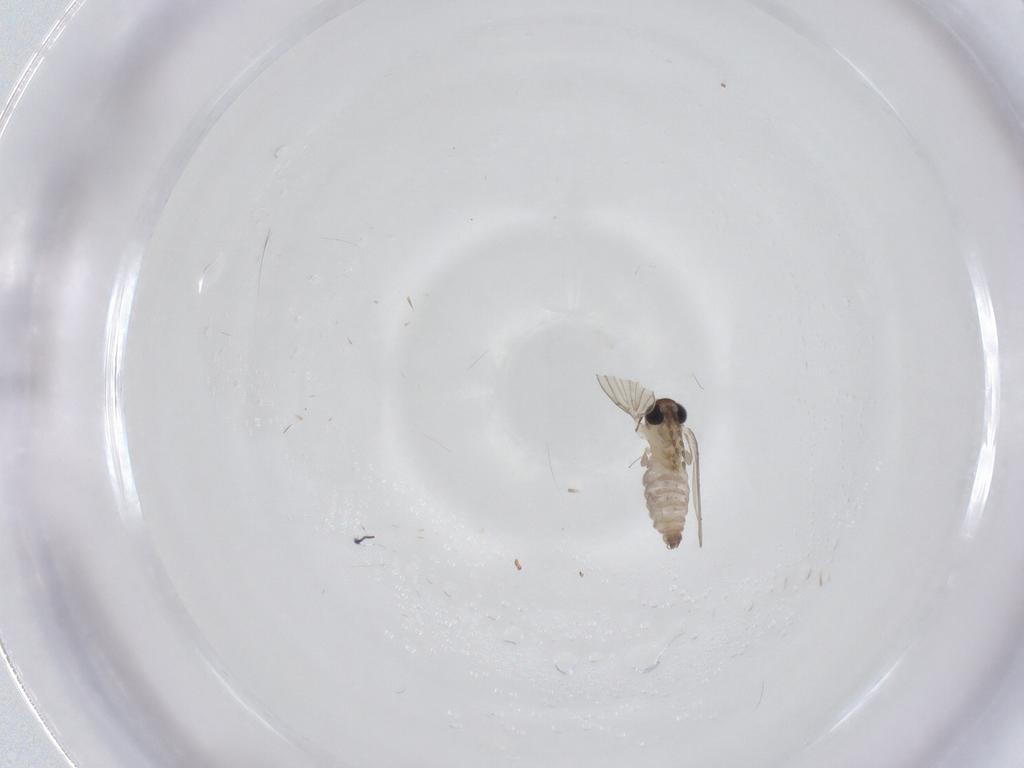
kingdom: Animalia
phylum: Arthropoda
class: Insecta
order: Diptera
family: Psychodidae
